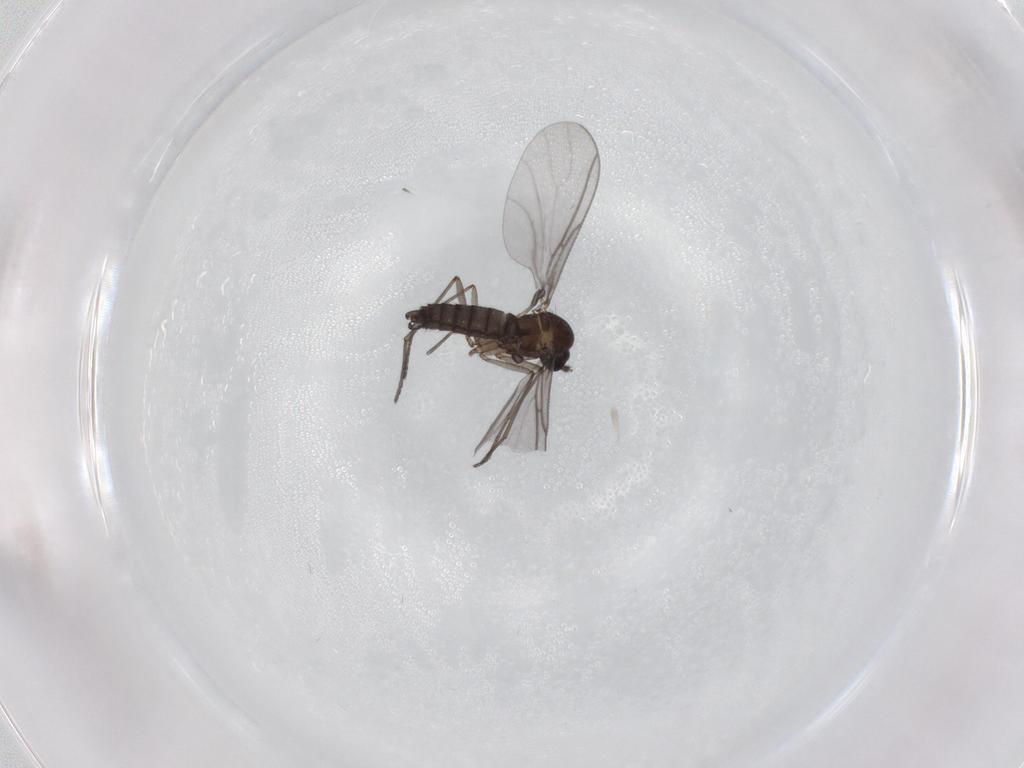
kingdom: Animalia
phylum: Arthropoda
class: Insecta
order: Diptera
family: Sciaridae
